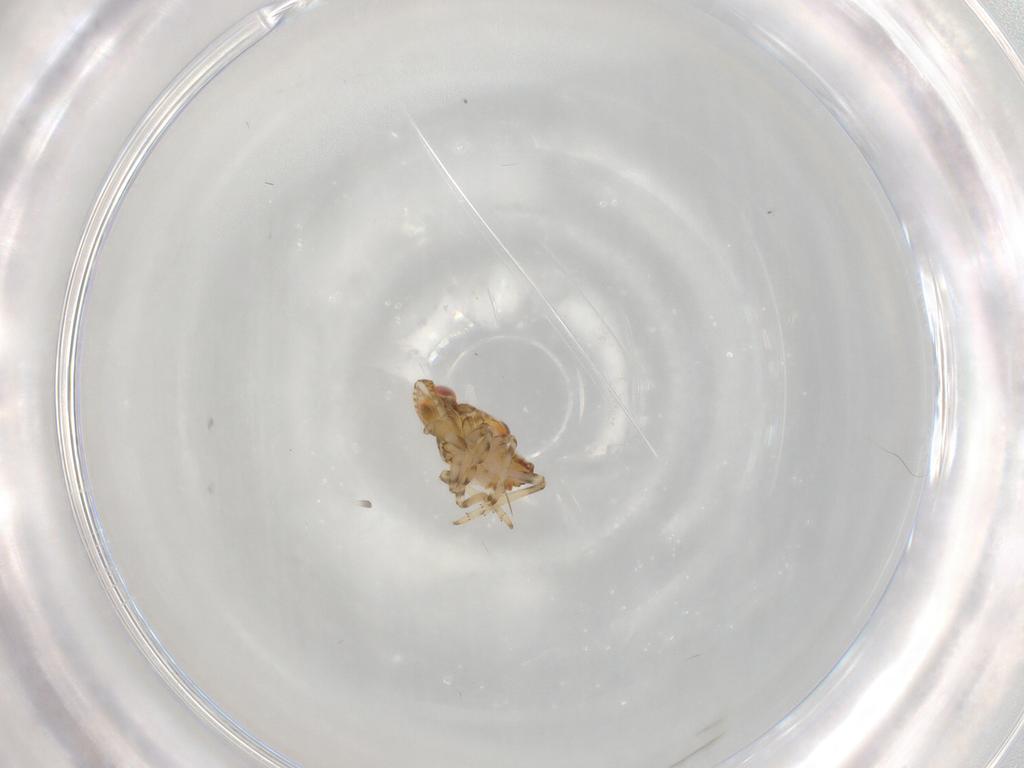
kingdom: Animalia
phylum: Arthropoda
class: Insecta
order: Hemiptera
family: Tropiduchidae
